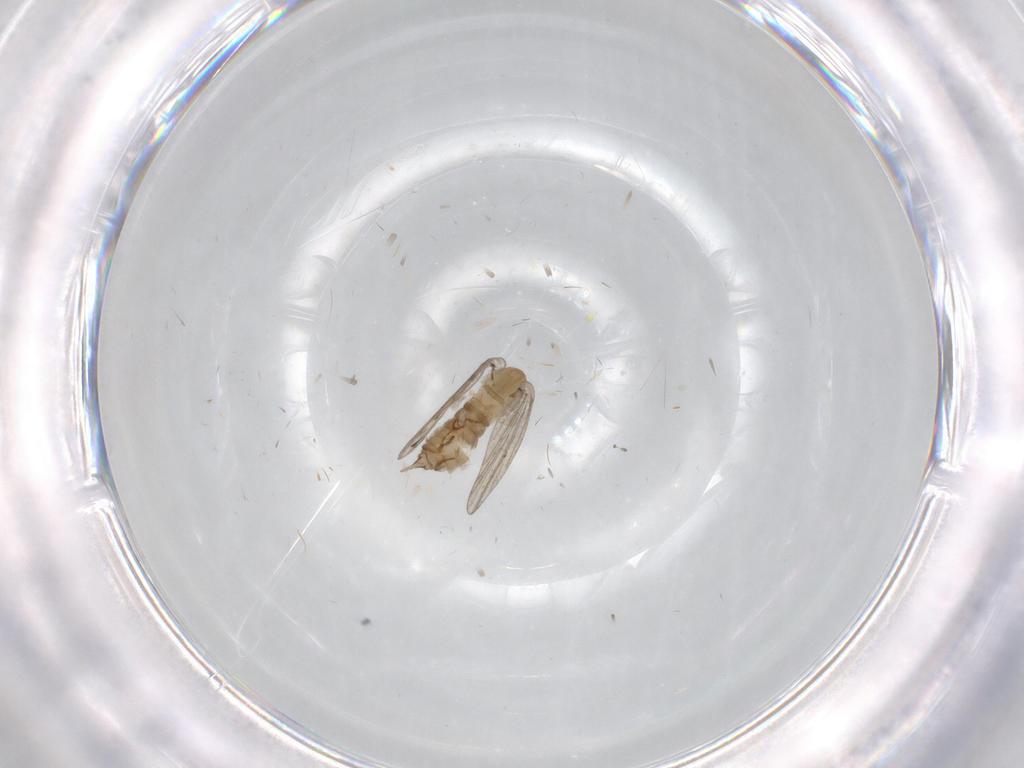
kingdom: Animalia
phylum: Arthropoda
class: Insecta
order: Diptera
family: Psychodidae
